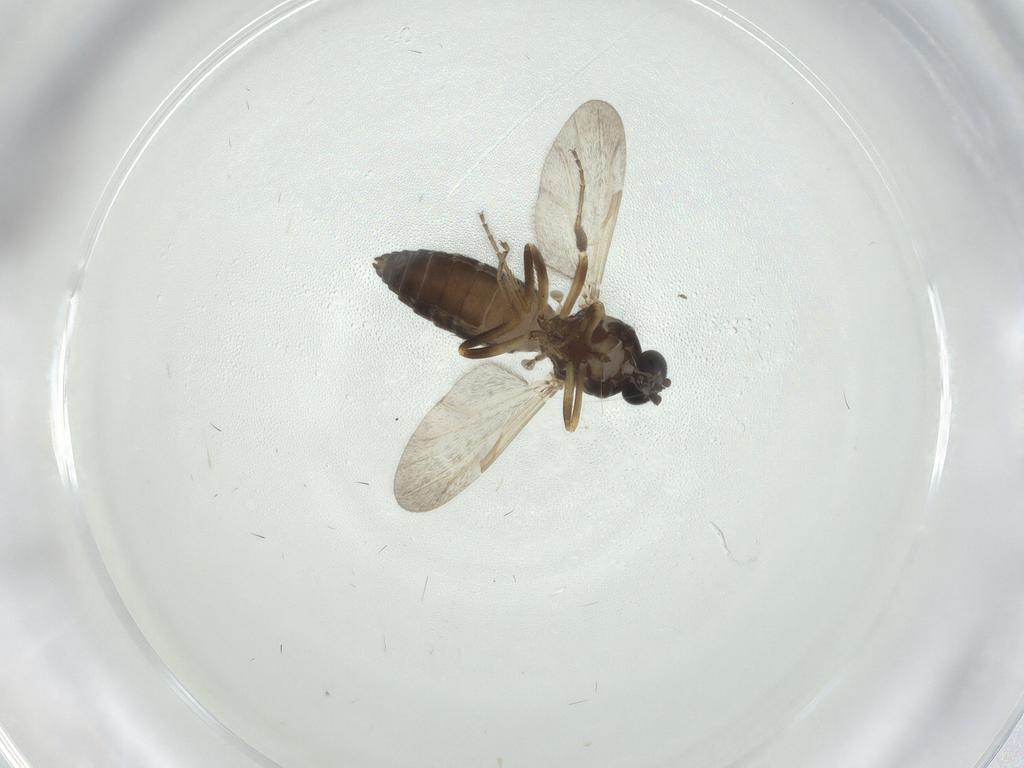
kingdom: Animalia
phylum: Arthropoda
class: Insecta
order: Diptera
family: Ceratopogonidae
